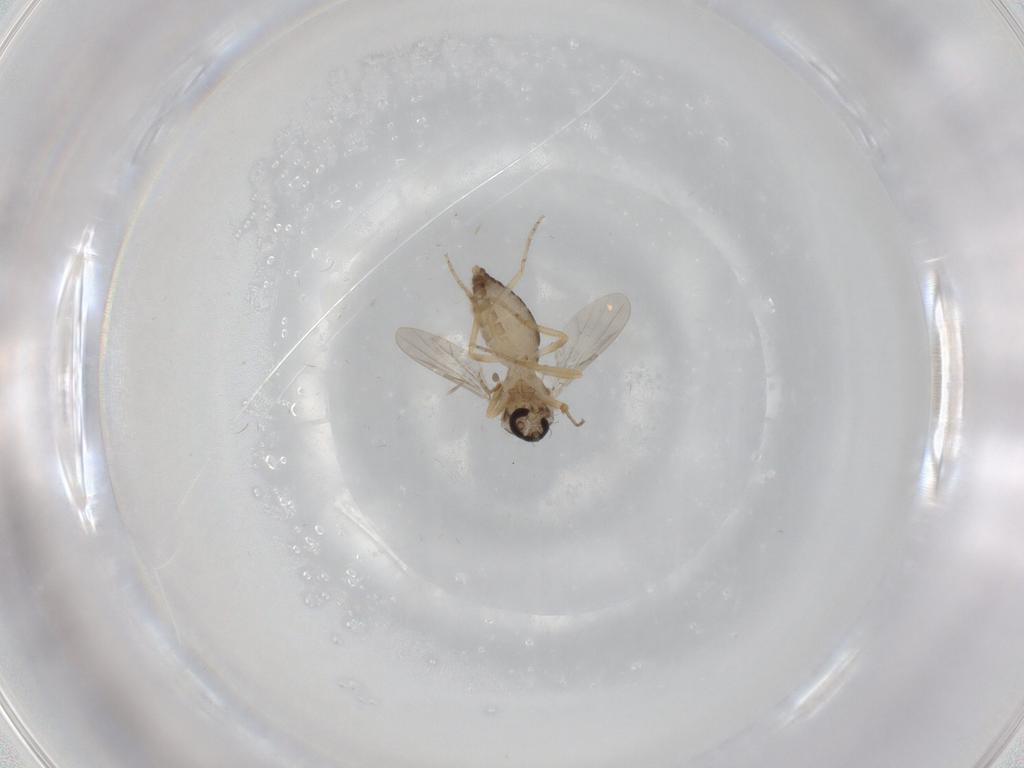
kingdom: Animalia
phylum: Arthropoda
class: Insecta
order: Diptera
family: Ceratopogonidae
